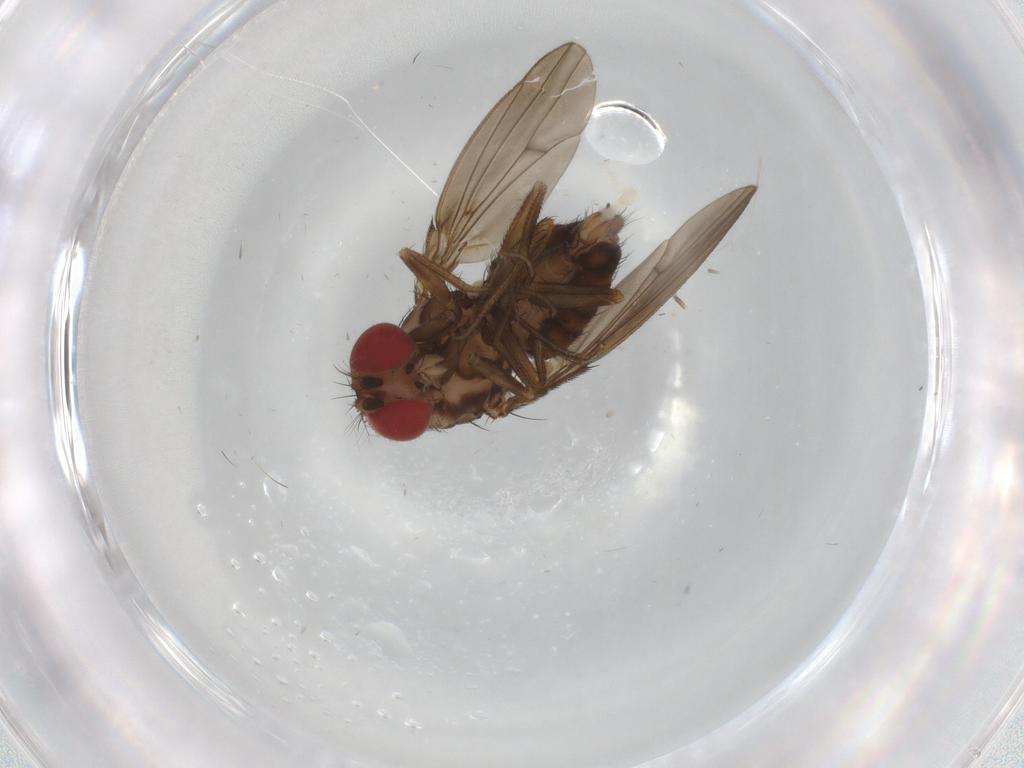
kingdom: Animalia
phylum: Arthropoda
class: Insecta
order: Diptera
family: Drosophilidae
